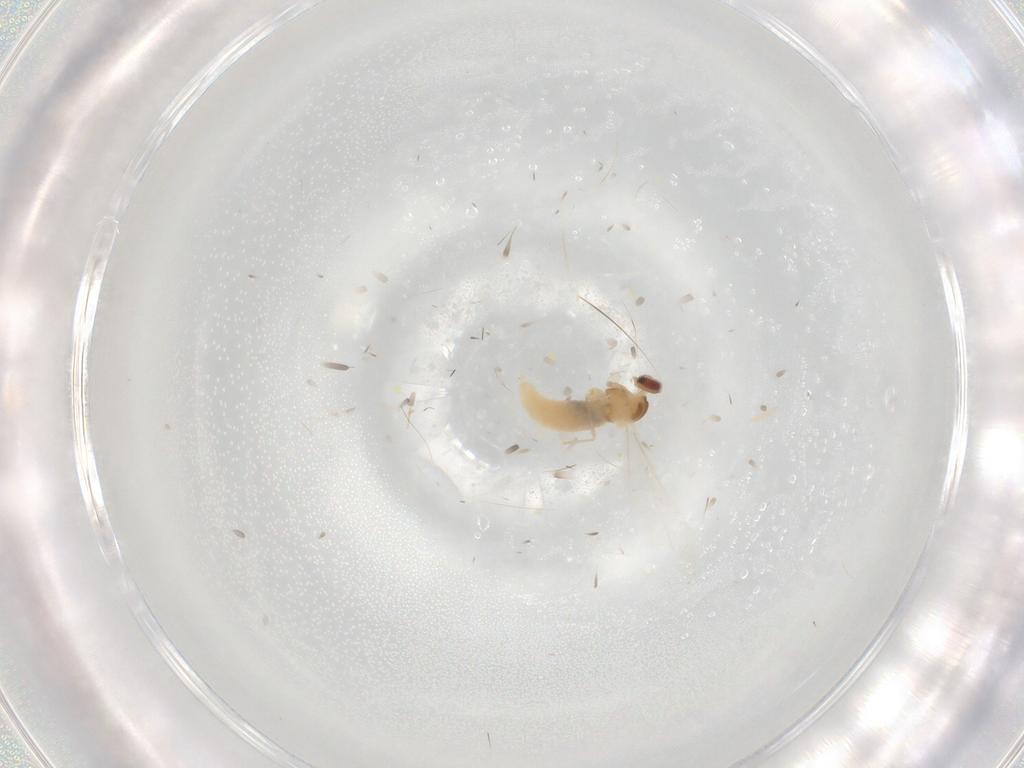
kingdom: Animalia
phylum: Arthropoda
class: Insecta
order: Diptera
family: Cecidomyiidae
